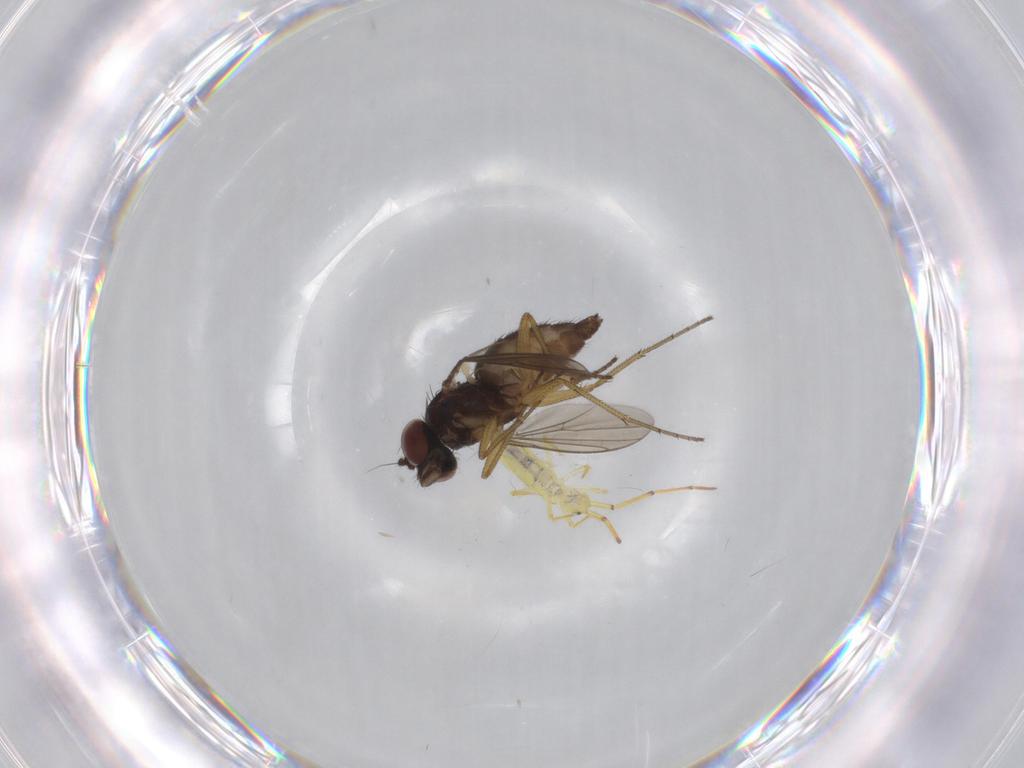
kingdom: Animalia
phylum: Arthropoda
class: Insecta
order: Diptera
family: Dolichopodidae
